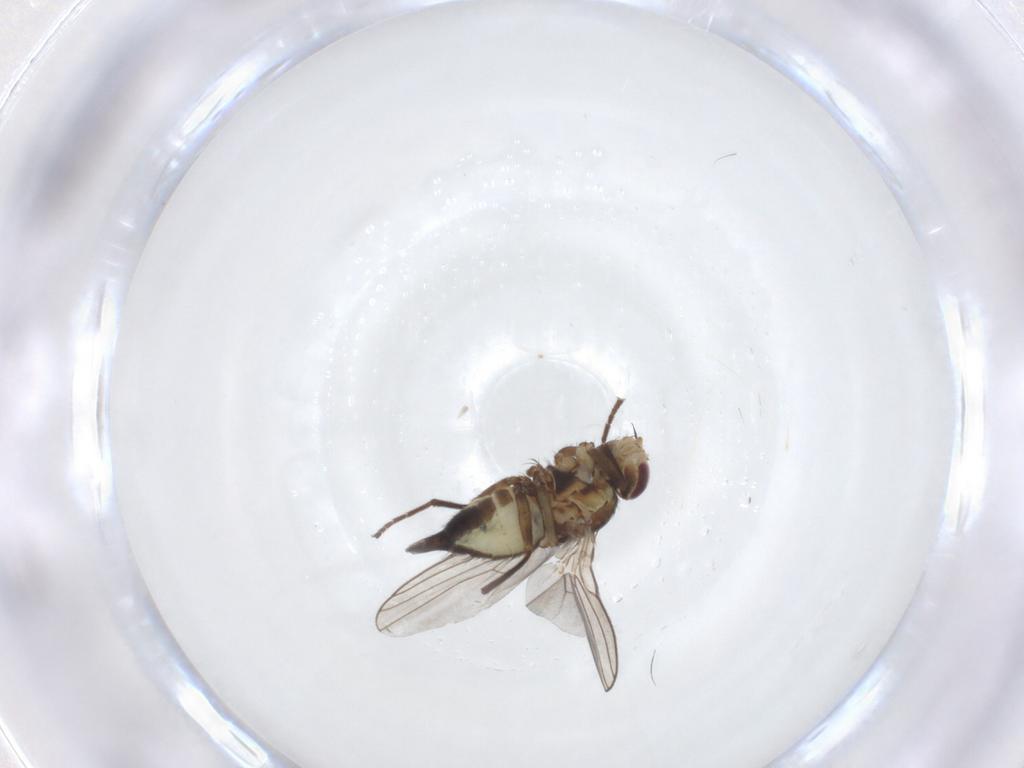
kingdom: Animalia
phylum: Arthropoda
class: Insecta
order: Diptera
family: Agromyzidae
